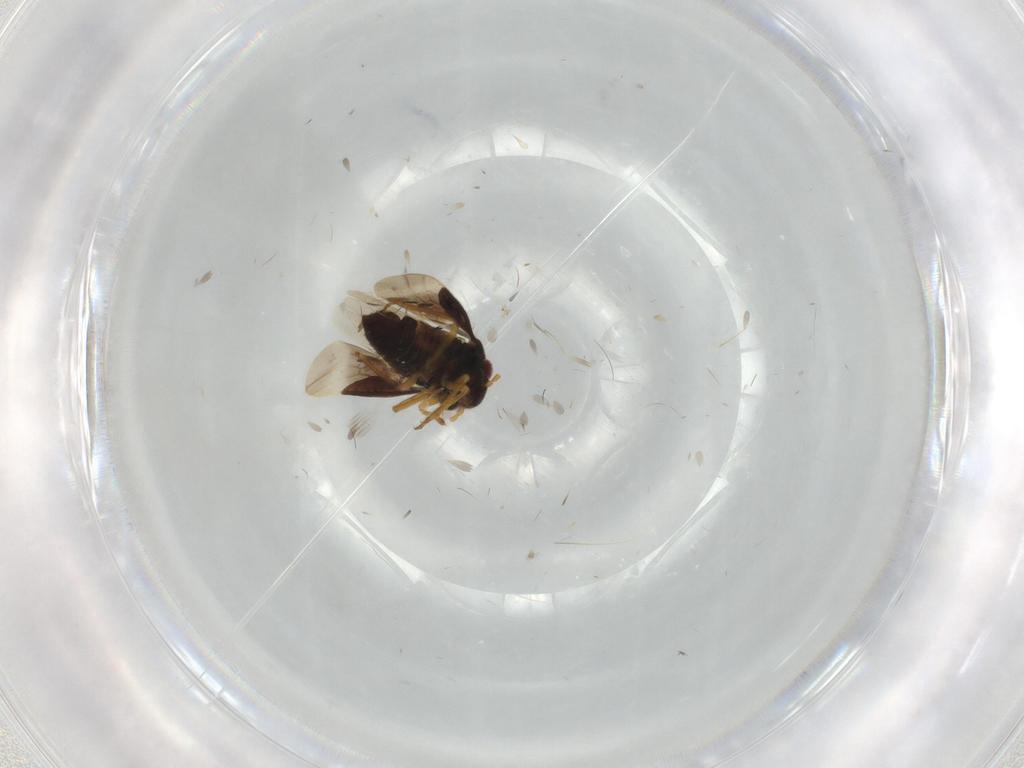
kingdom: Animalia
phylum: Arthropoda
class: Insecta
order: Hemiptera
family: Schizopteridae
